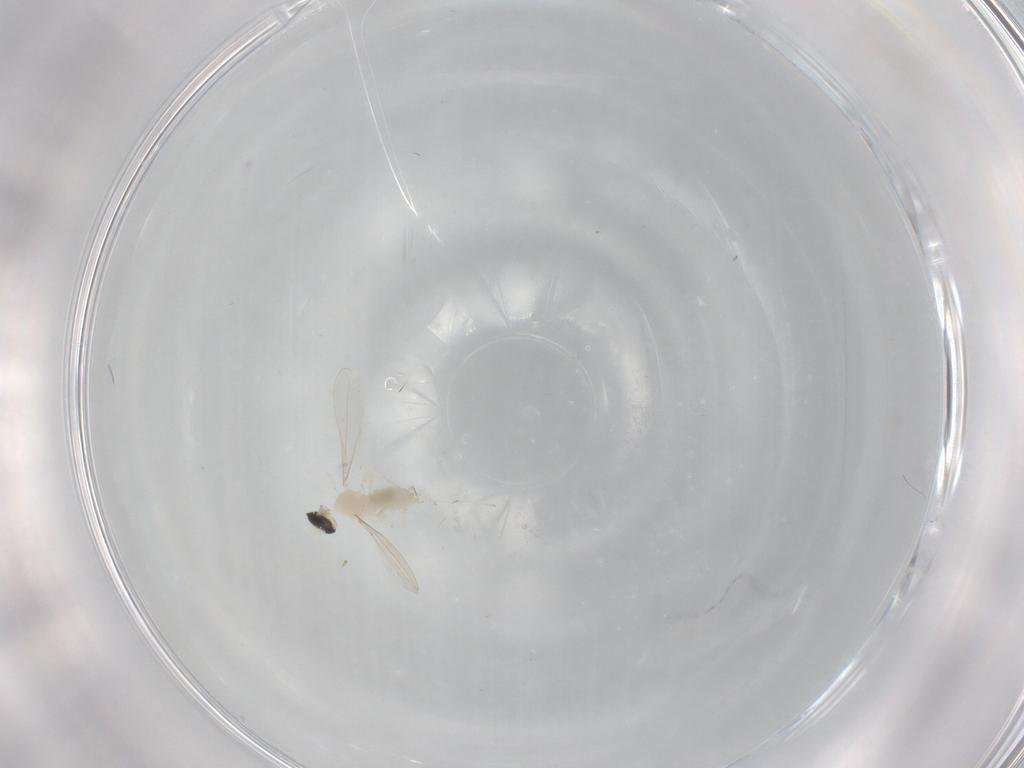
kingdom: Animalia
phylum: Arthropoda
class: Insecta
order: Diptera
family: Cecidomyiidae
